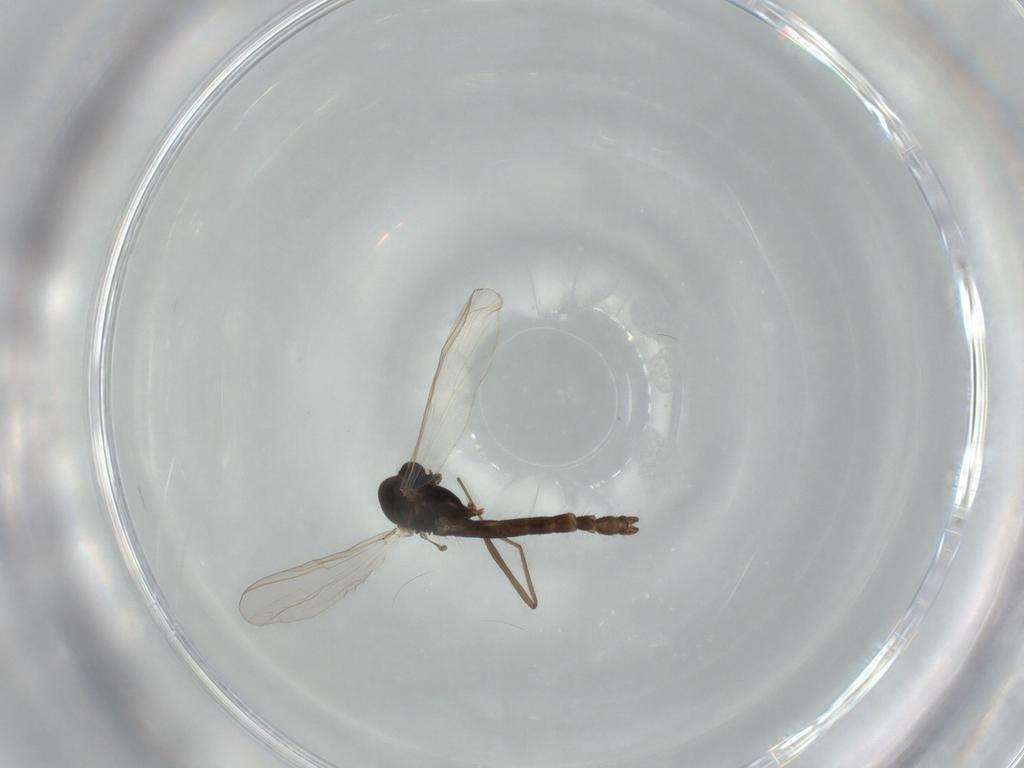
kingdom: Animalia
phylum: Arthropoda
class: Insecta
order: Diptera
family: Chironomidae
